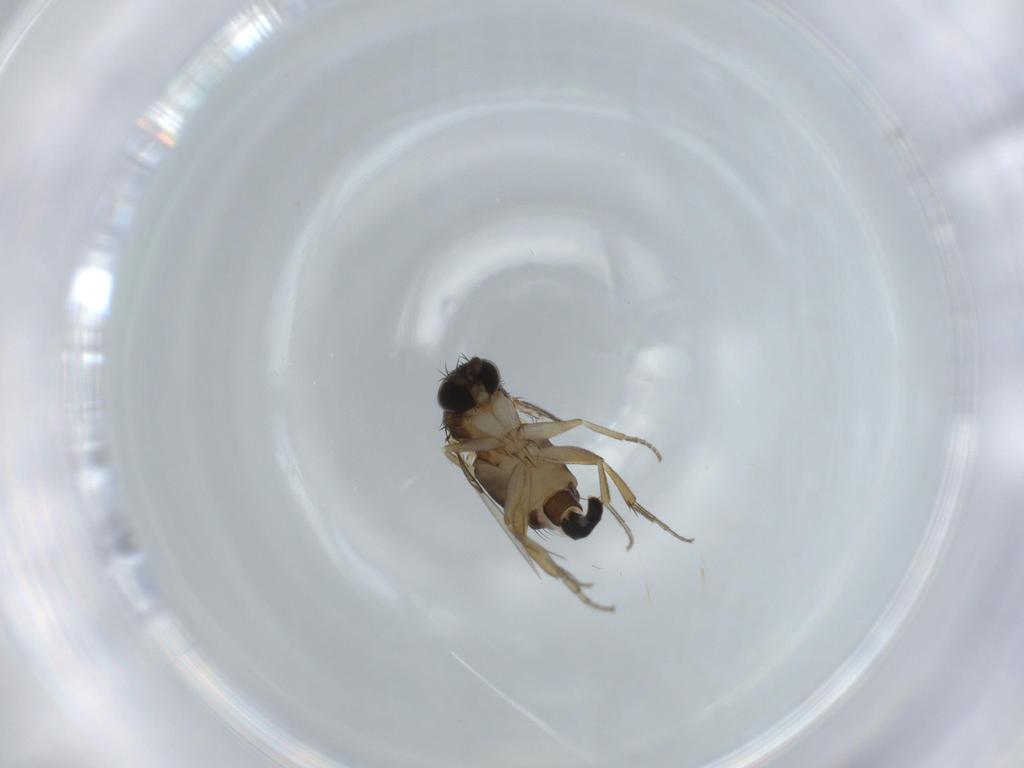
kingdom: Animalia
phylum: Arthropoda
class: Insecta
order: Diptera
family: Phoridae
